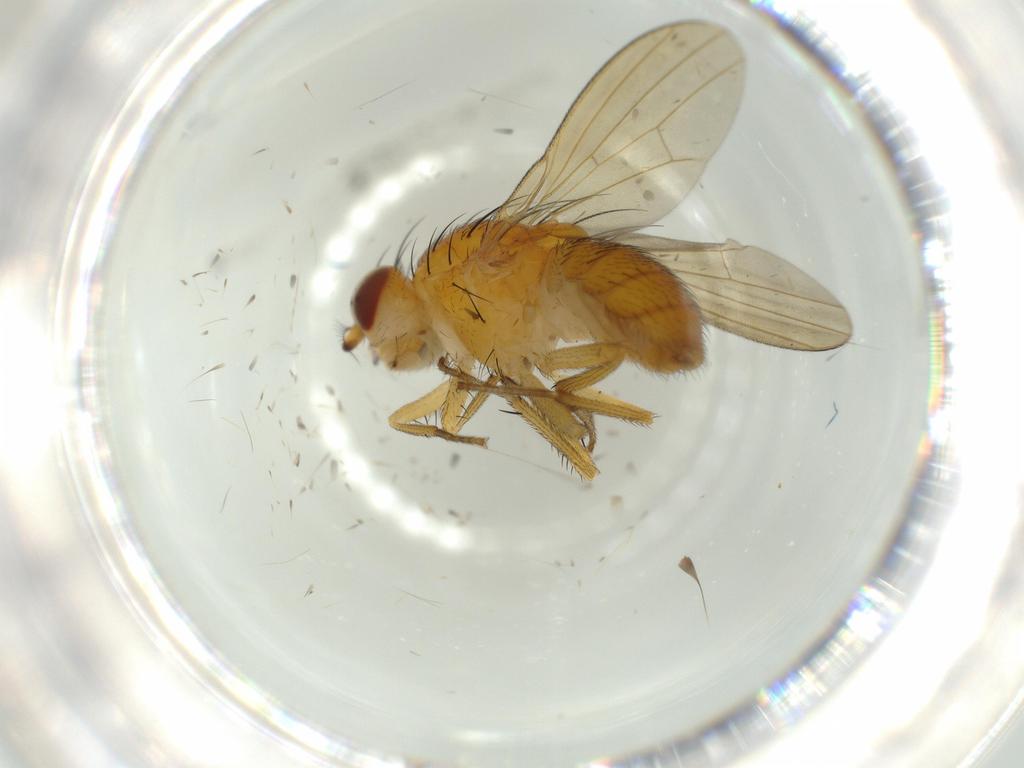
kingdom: Animalia
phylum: Arthropoda
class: Insecta
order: Diptera
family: Lauxaniidae
